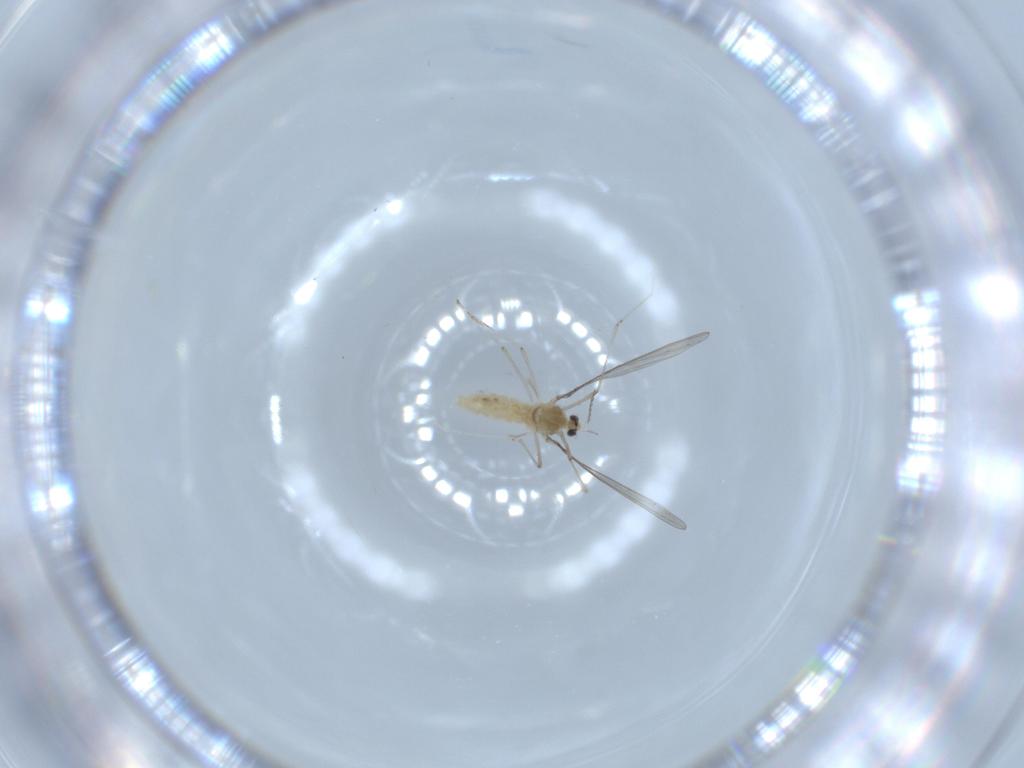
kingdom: Animalia
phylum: Arthropoda
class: Insecta
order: Diptera
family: Cecidomyiidae
